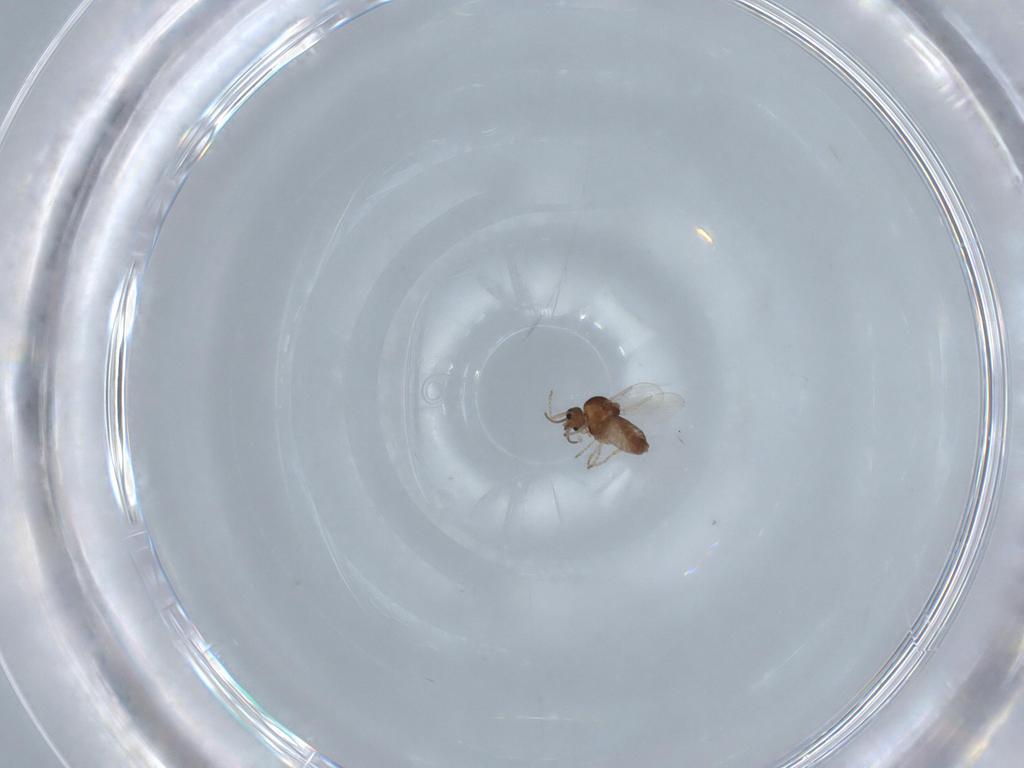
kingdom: Animalia
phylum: Arthropoda
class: Insecta
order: Diptera
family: Ceratopogonidae
